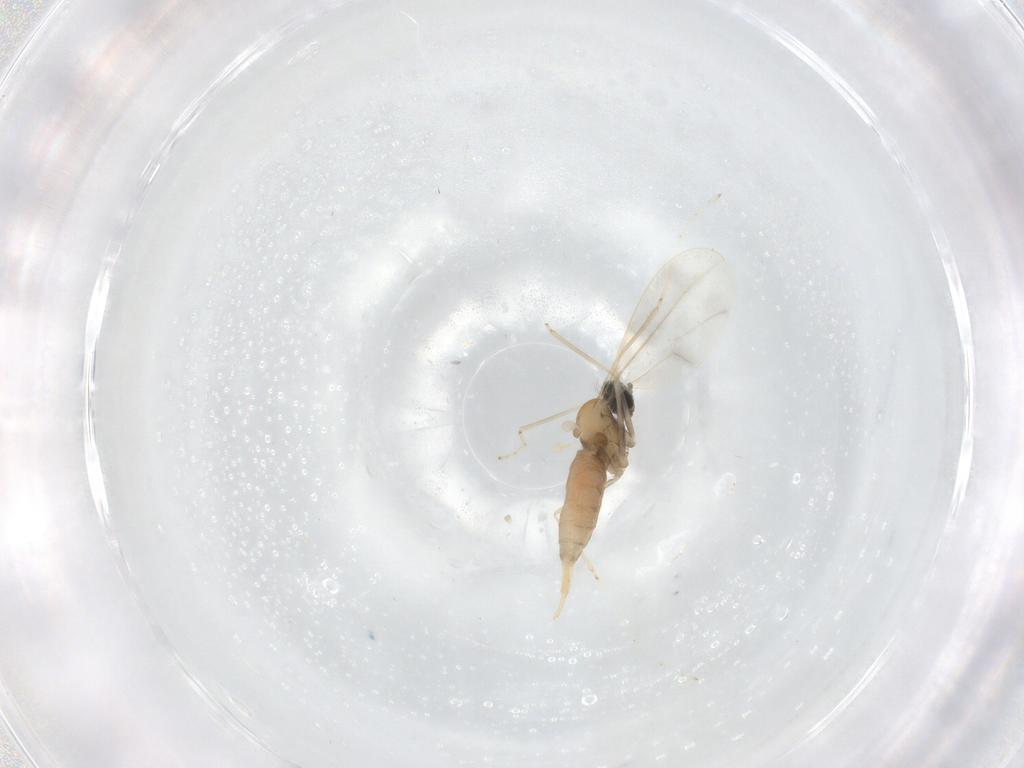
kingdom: Animalia
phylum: Arthropoda
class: Insecta
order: Diptera
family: Cecidomyiidae
